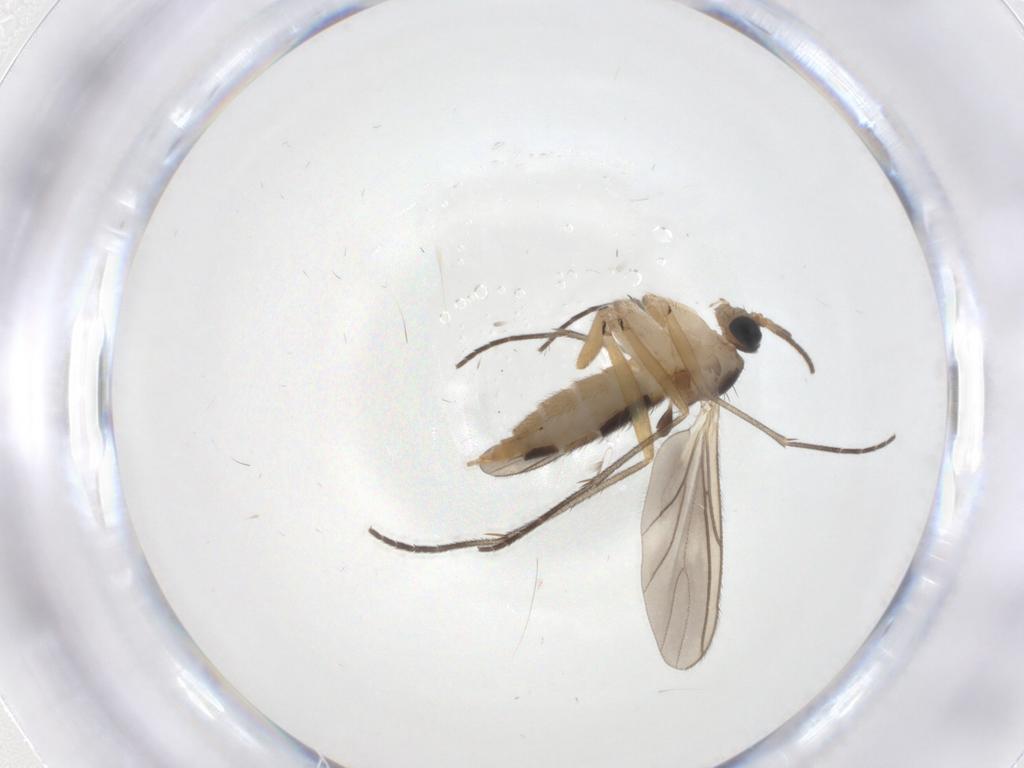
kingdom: Animalia
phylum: Arthropoda
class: Insecta
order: Diptera
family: Sciaridae
